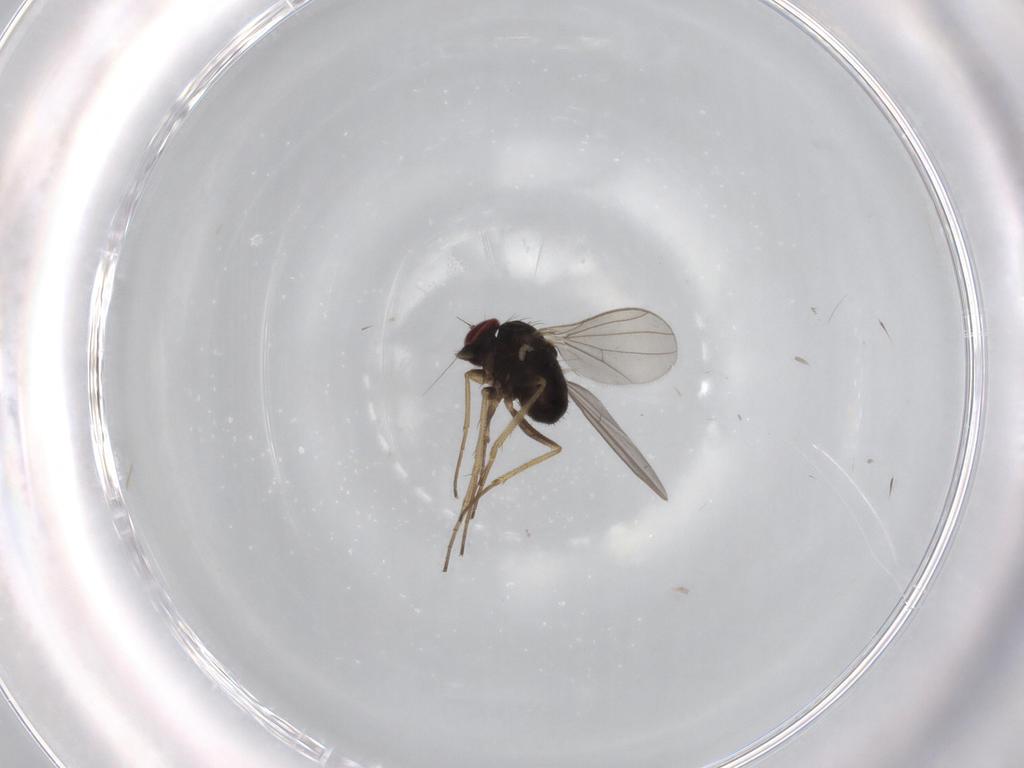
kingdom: Animalia
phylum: Arthropoda
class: Insecta
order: Diptera
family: Dolichopodidae
